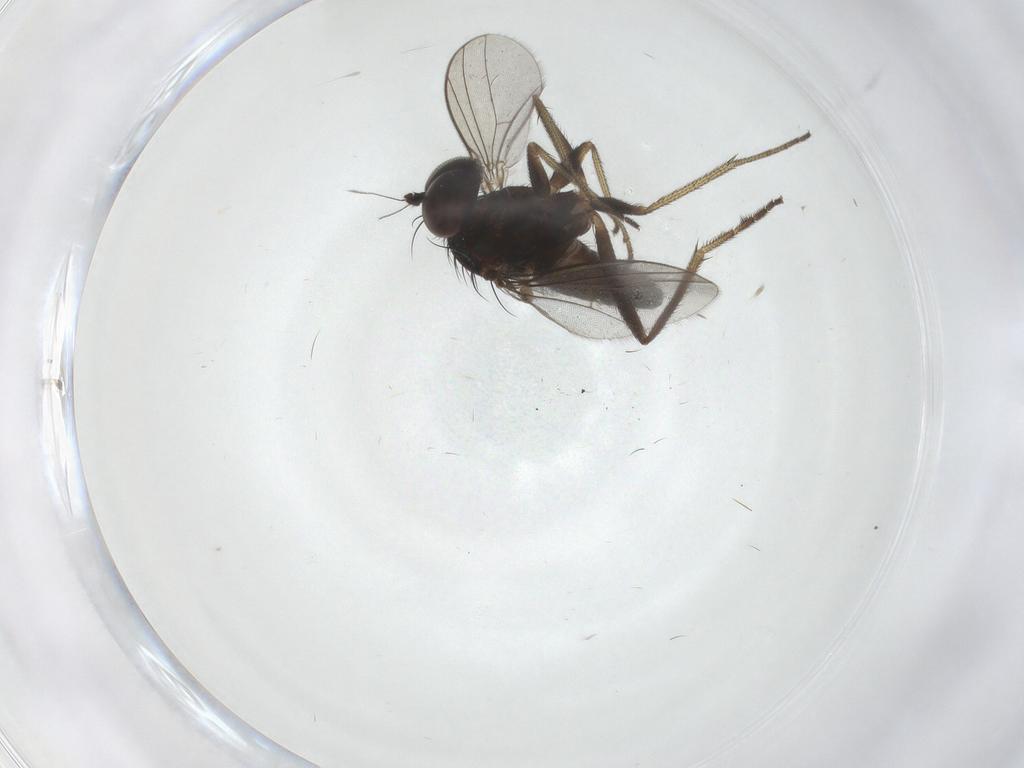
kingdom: Animalia
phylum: Arthropoda
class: Insecta
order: Diptera
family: Dolichopodidae
